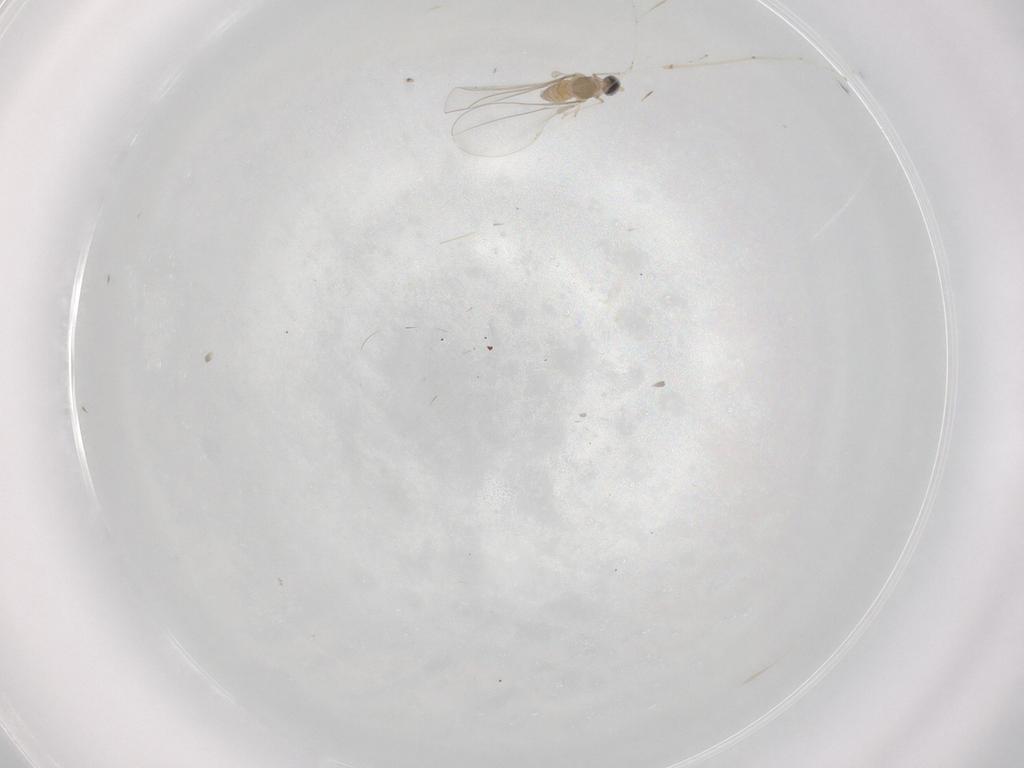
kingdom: Animalia
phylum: Arthropoda
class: Insecta
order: Diptera
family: Cecidomyiidae
